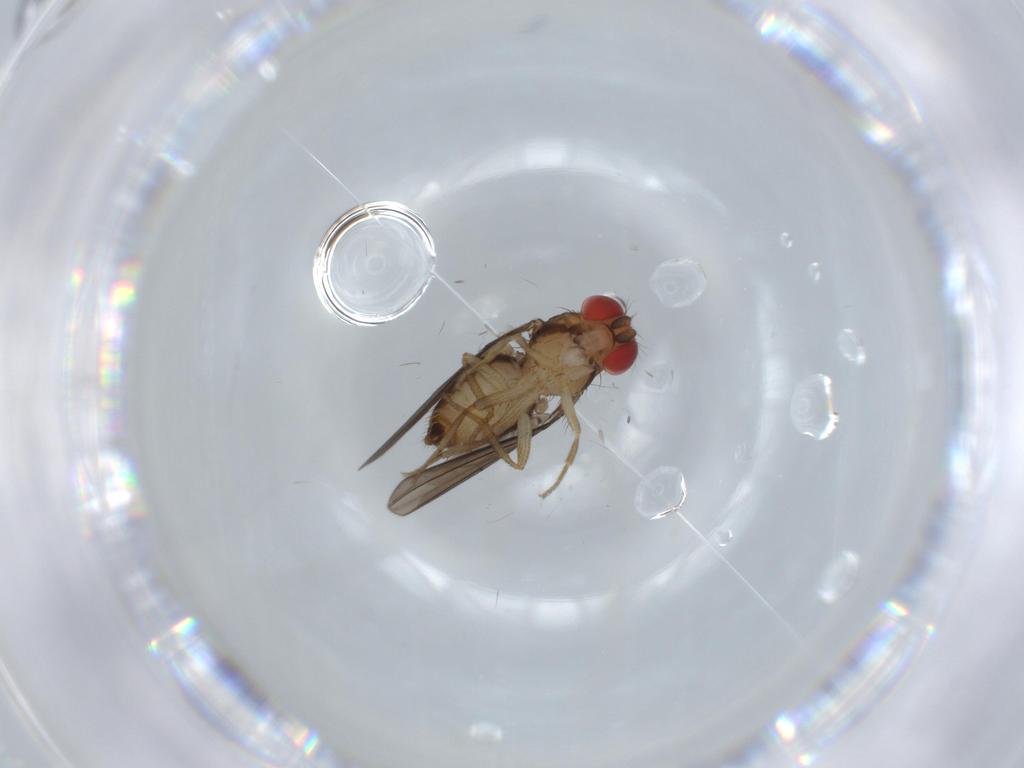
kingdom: Animalia
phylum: Arthropoda
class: Insecta
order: Diptera
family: Drosophilidae
